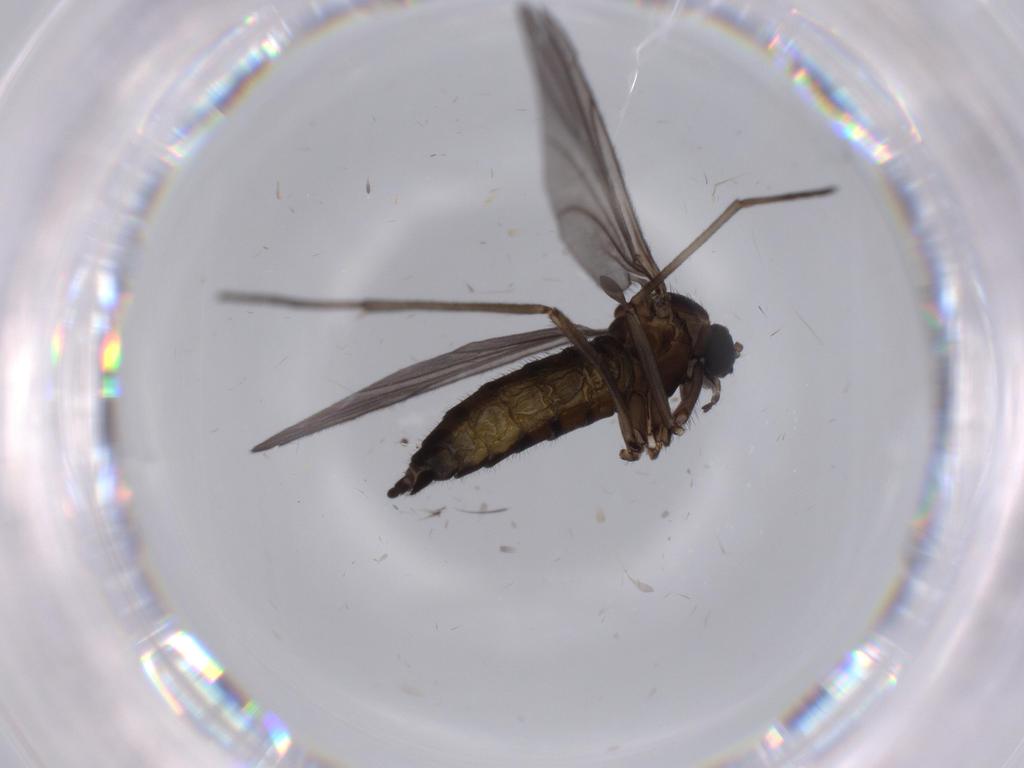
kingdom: Animalia
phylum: Arthropoda
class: Insecta
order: Diptera
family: Sciaridae
